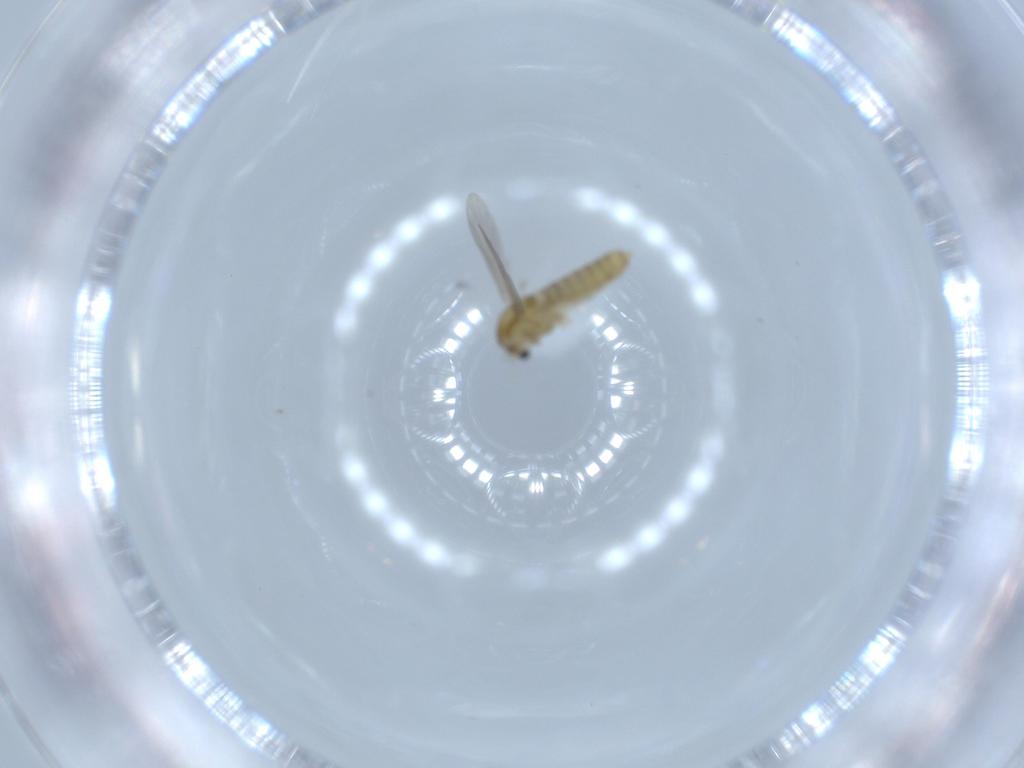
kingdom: Animalia
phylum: Arthropoda
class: Insecta
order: Diptera
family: Chironomidae
